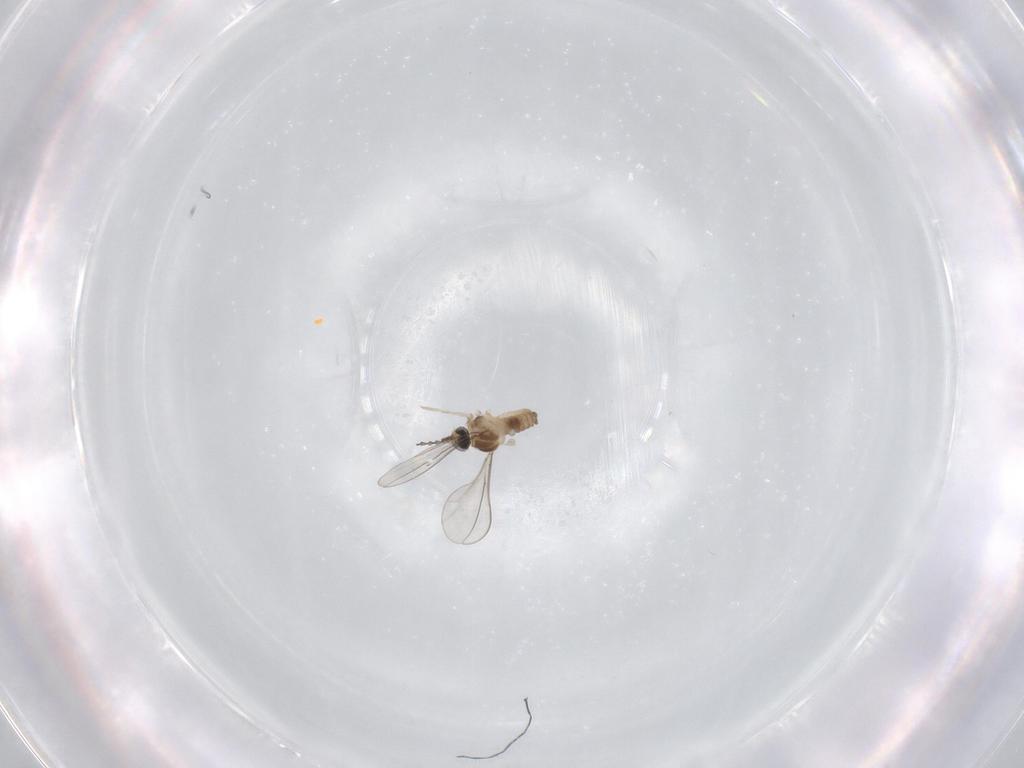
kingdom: Animalia
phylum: Arthropoda
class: Insecta
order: Diptera
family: Cecidomyiidae
